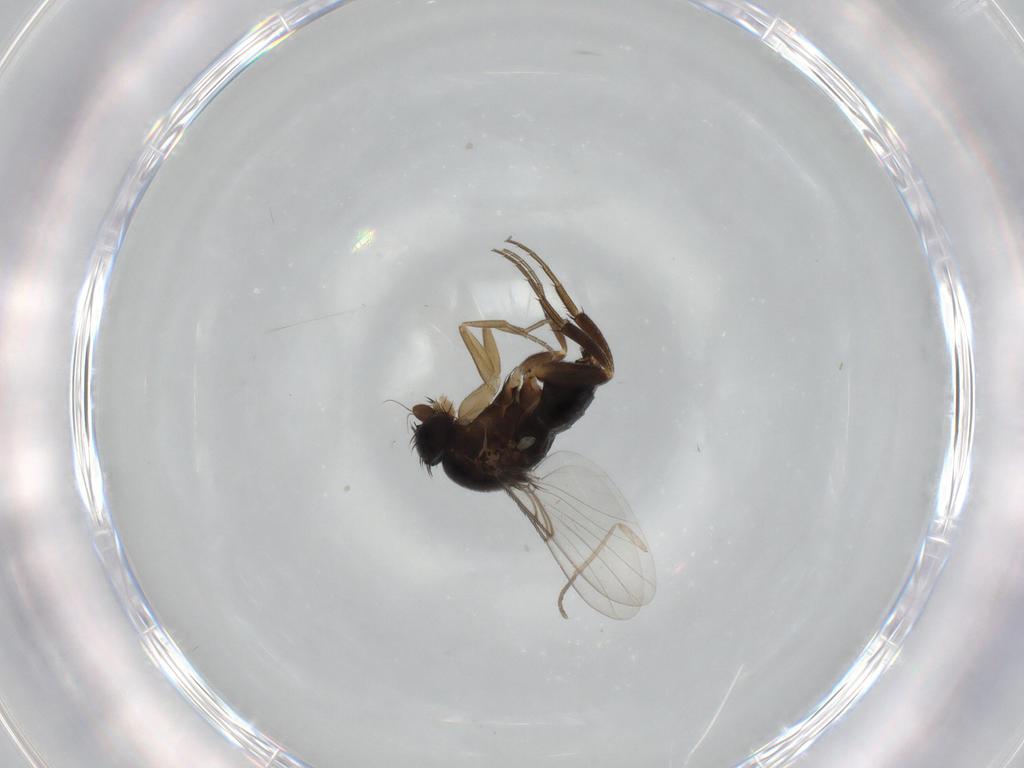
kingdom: Animalia
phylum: Arthropoda
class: Insecta
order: Diptera
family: Phoridae
